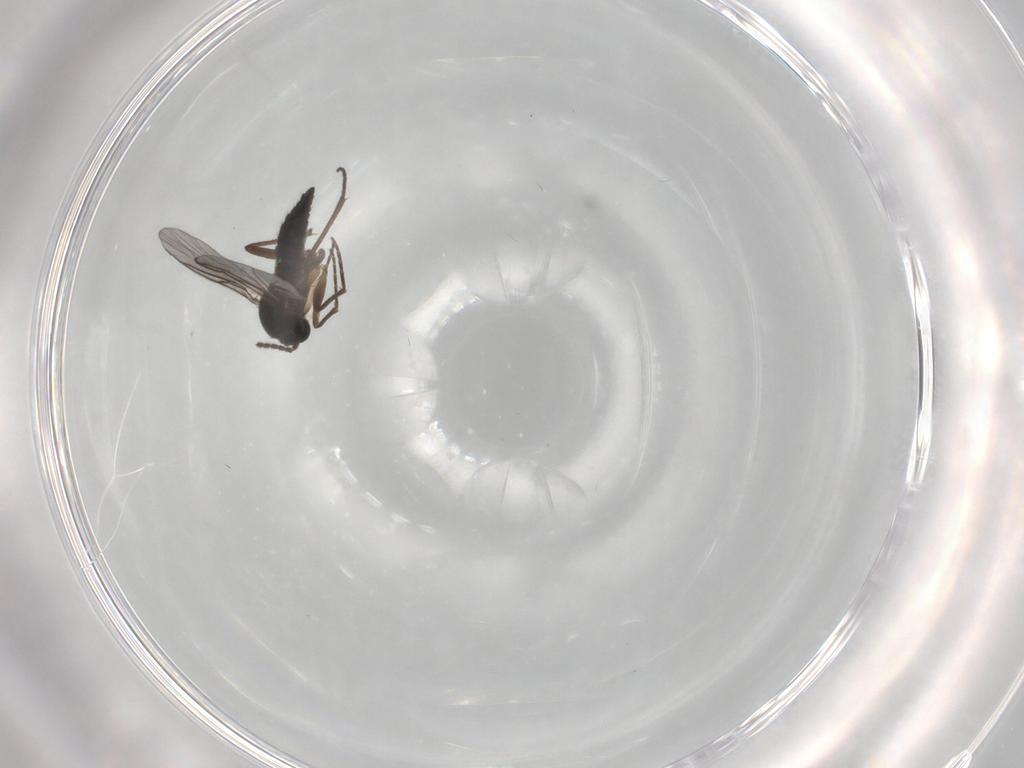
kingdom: Animalia
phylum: Arthropoda
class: Insecta
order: Diptera
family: Sciaridae
